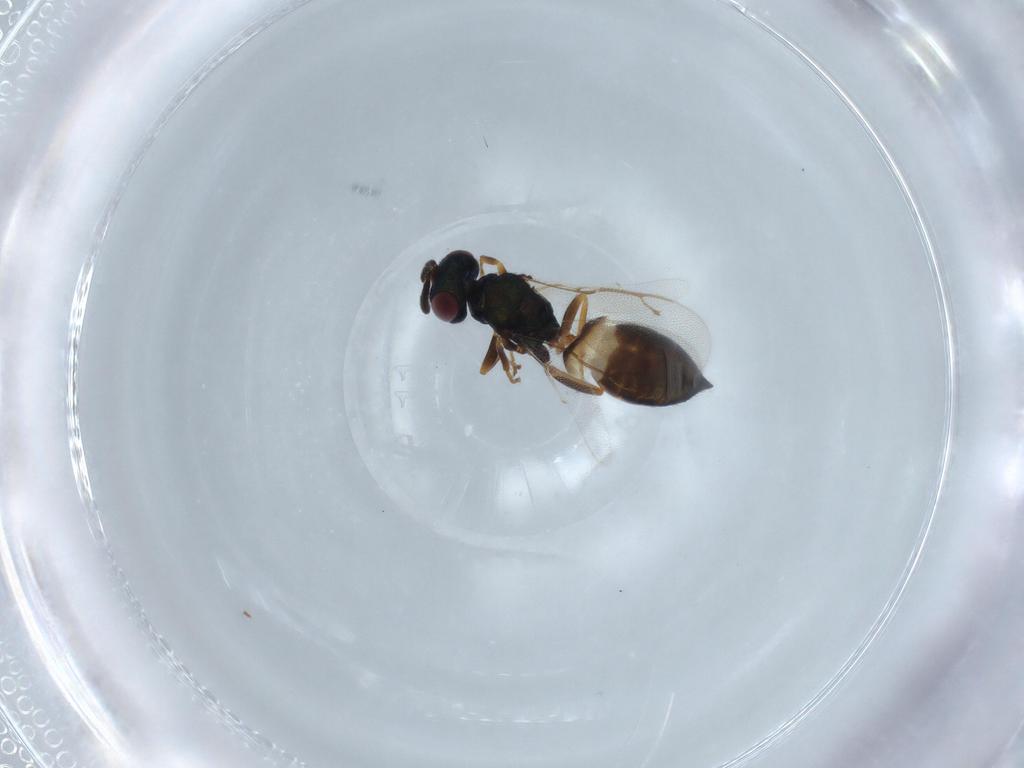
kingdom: Animalia
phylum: Arthropoda
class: Insecta
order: Hymenoptera
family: Pteromalidae
